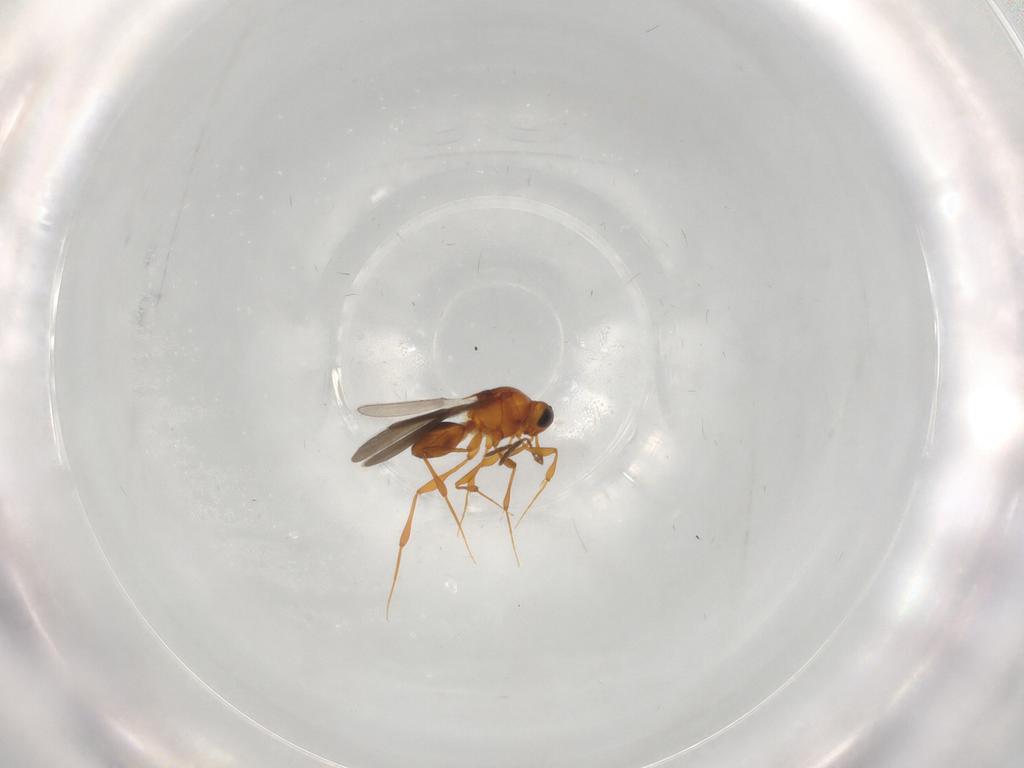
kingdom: Animalia
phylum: Arthropoda
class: Insecta
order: Hymenoptera
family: Platygastridae
